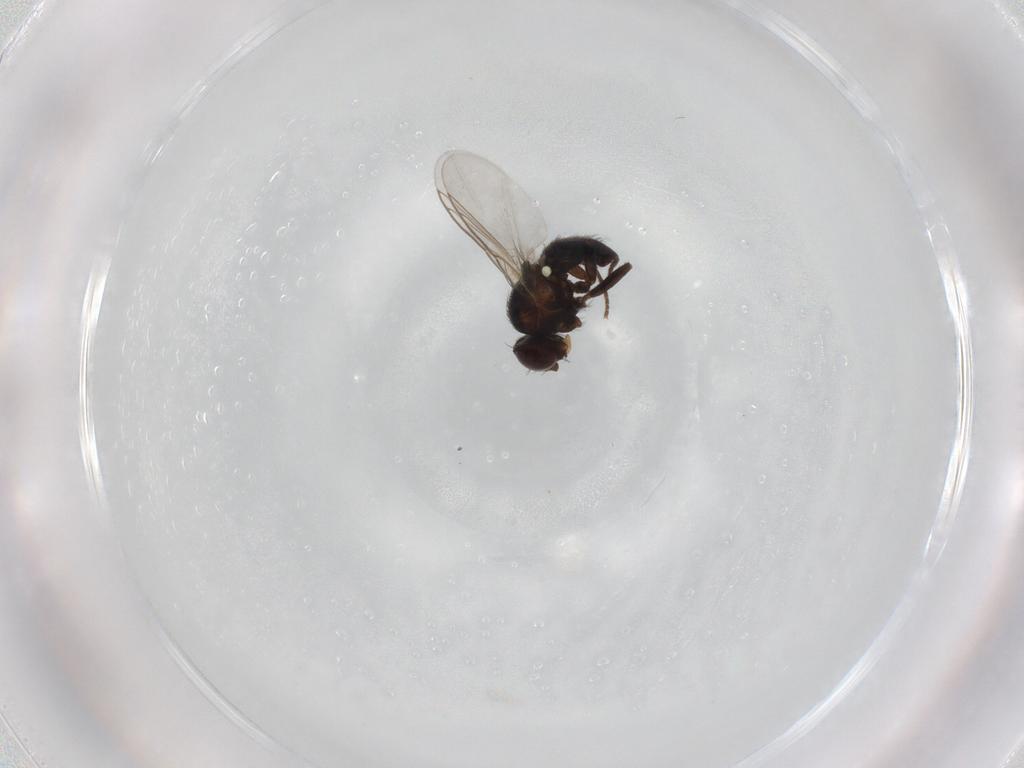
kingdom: Animalia
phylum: Arthropoda
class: Insecta
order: Diptera
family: Agromyzidae
